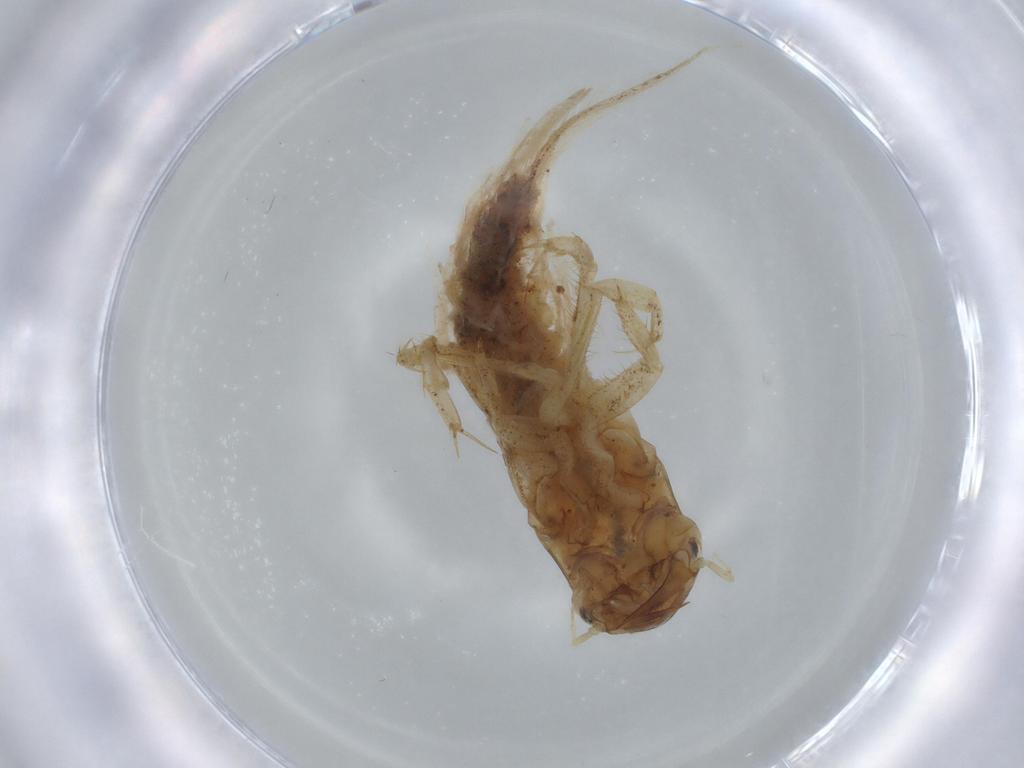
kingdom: Animalia
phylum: Arthropoda
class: Insecta
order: Megaloptera
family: Sialidae
